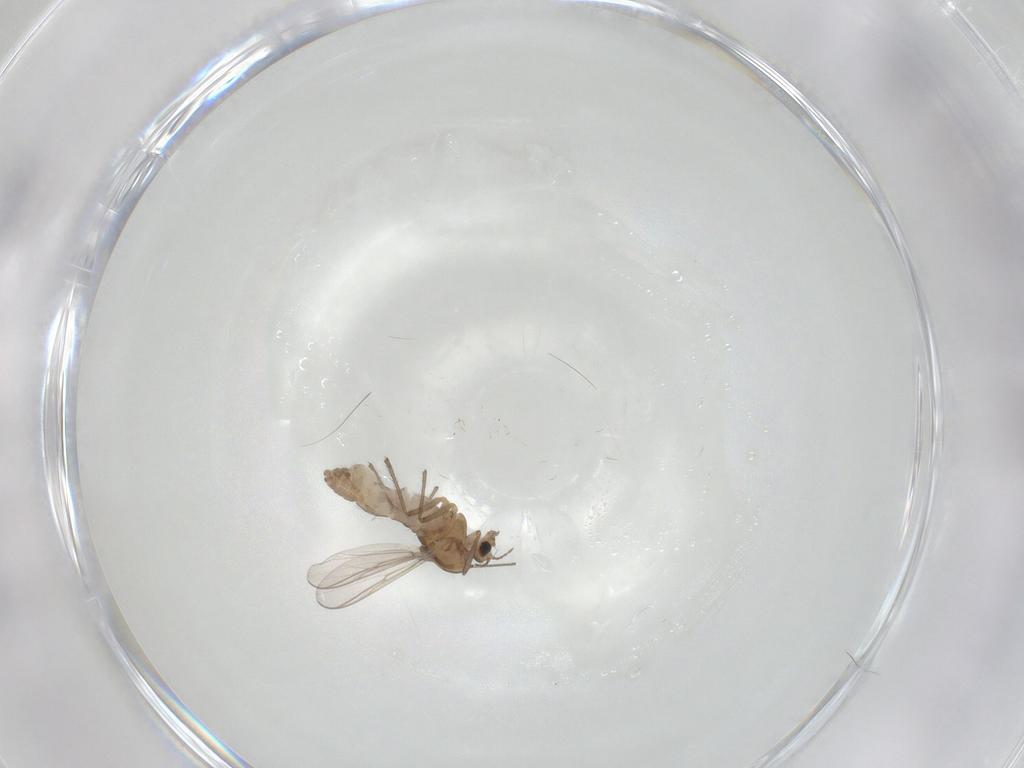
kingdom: Animalia
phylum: Arthropoda
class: Insecta
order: Diptera
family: Chironomidae
